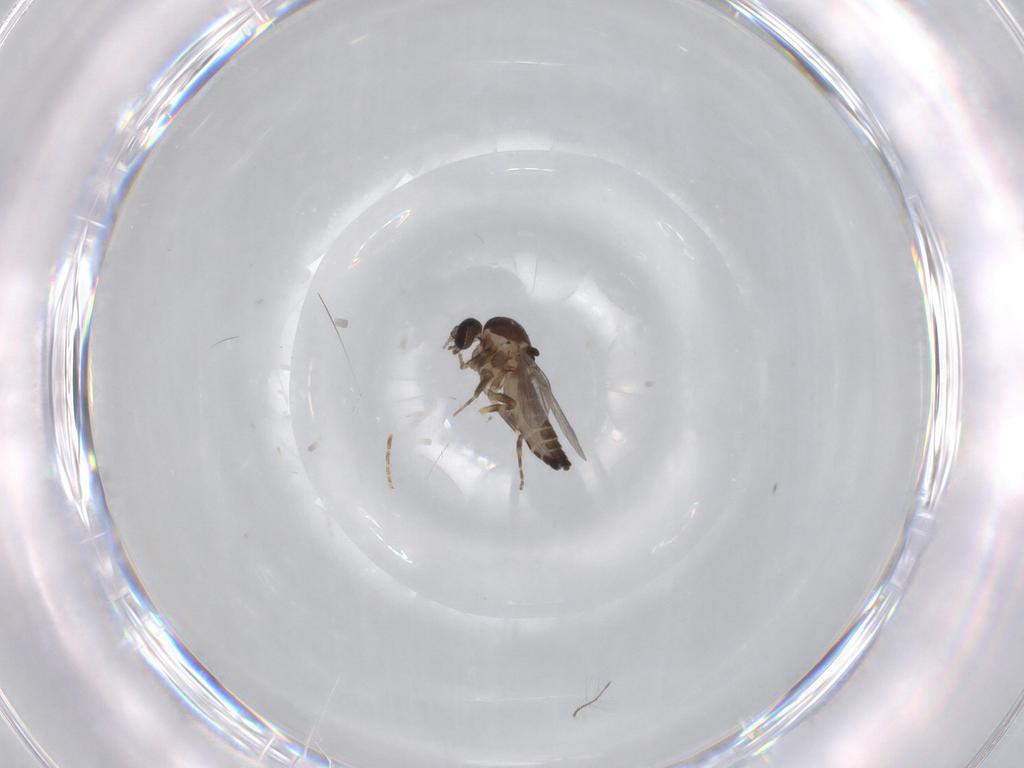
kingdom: Animalia
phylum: Arthropoda
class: Insecta
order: Diptera
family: Ceratopogonidae
